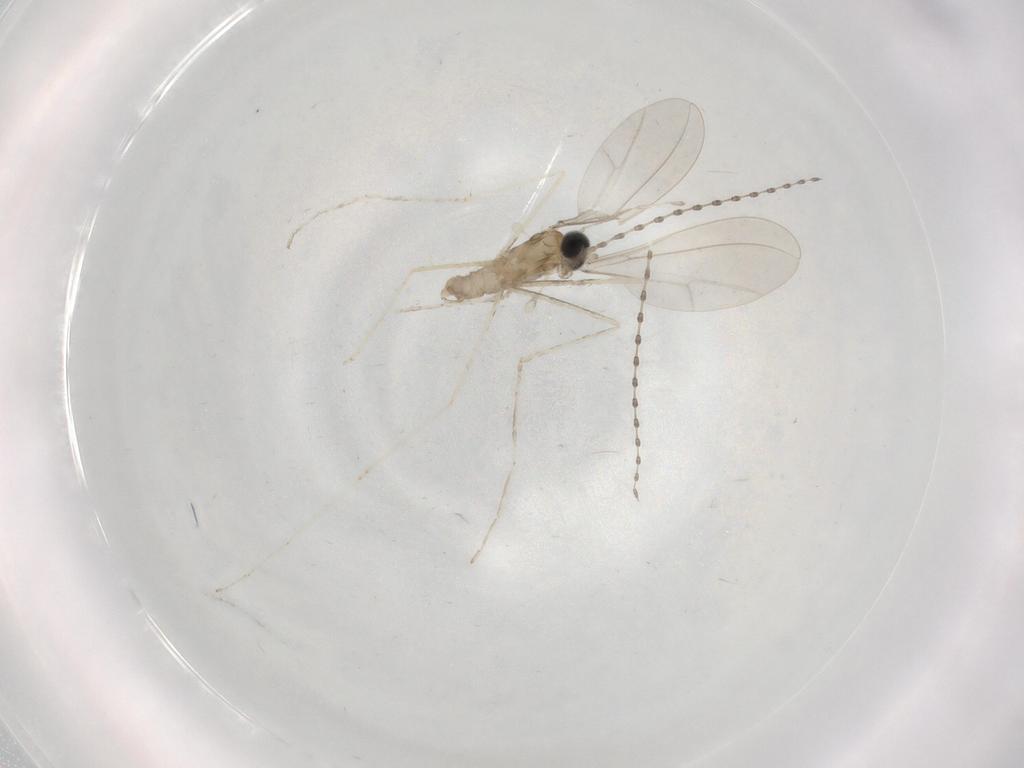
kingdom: Animalia
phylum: Arthropoda
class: Insecta
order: Diptera
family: Cecidomyiidae
